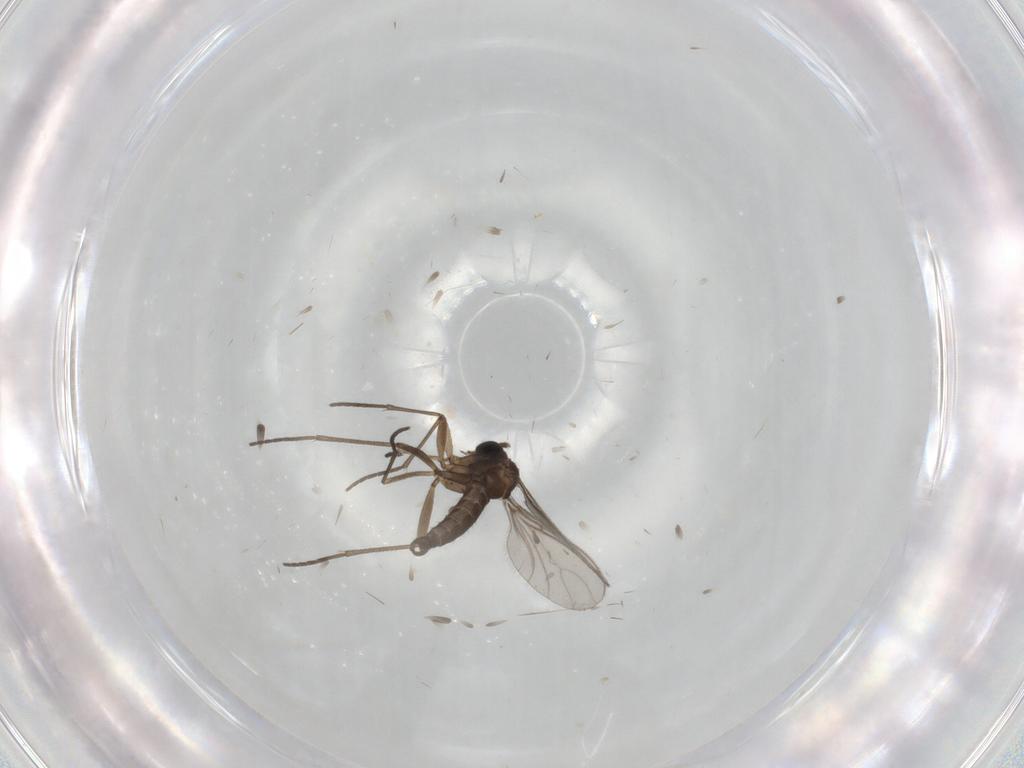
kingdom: Animalia
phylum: Arthropoda
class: Insecta
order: Diptera
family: Sciaridae
